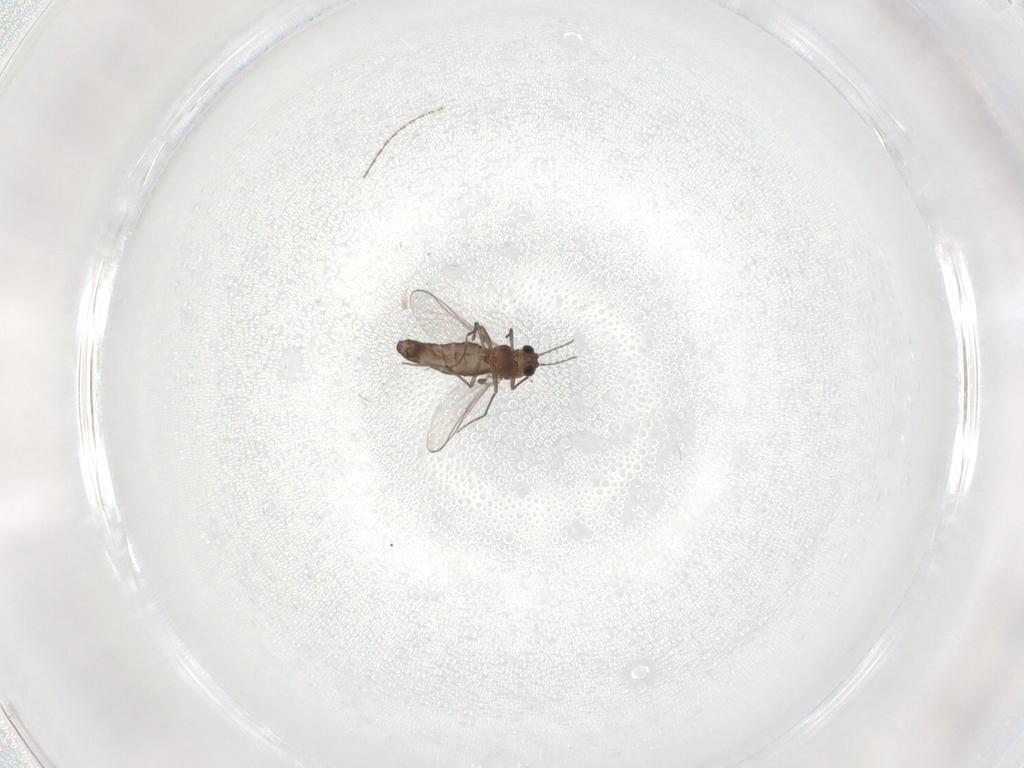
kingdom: Animalia
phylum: Arthropoda
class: Insecta
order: Diptera
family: Chironomidae
